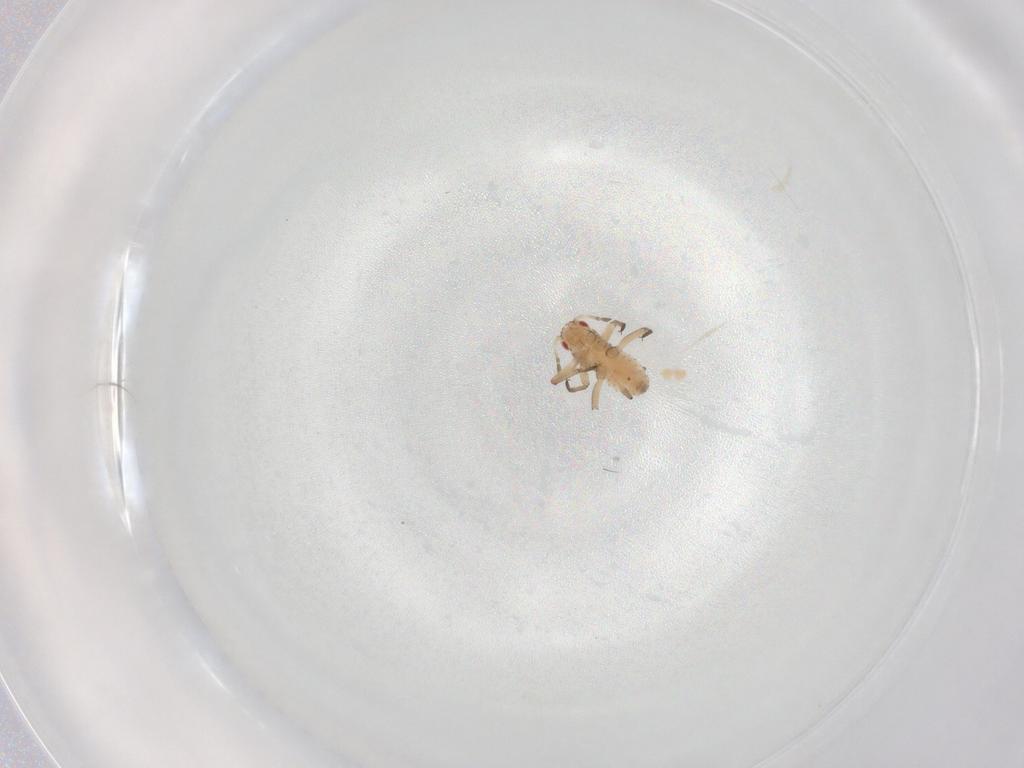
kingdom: Animalia
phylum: Arthropoda
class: Insecta
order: Hemiptera
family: Aphididae
